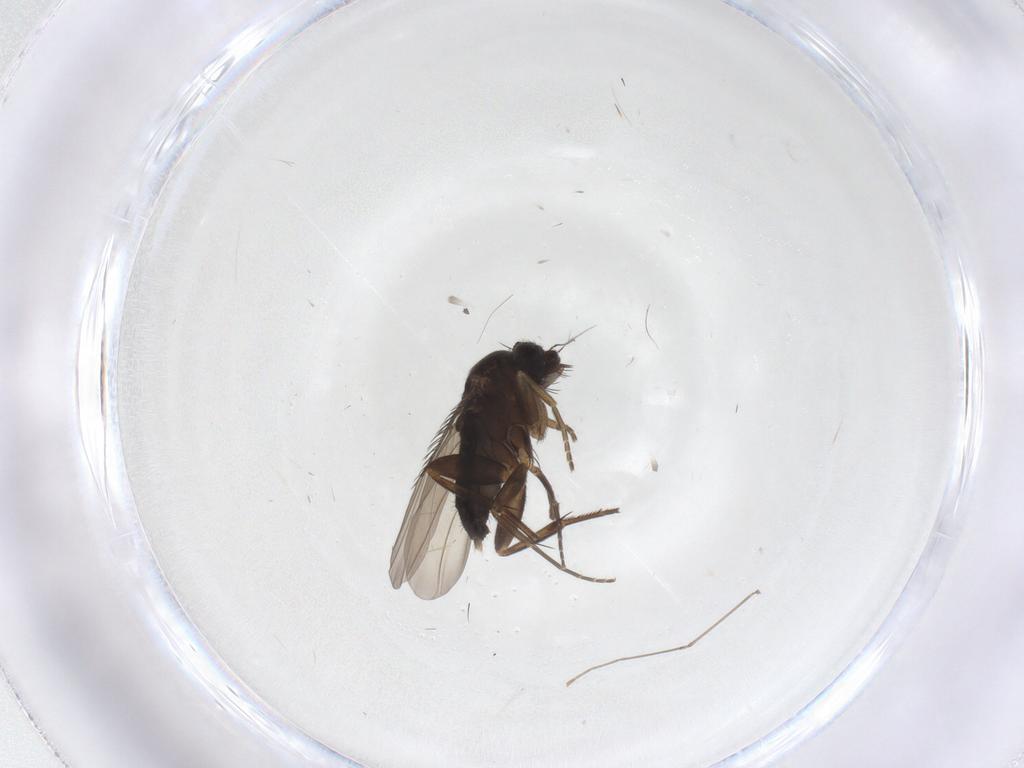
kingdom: Animalia
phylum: Arthropoda
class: Insecta
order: Diptera
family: Phoridae
